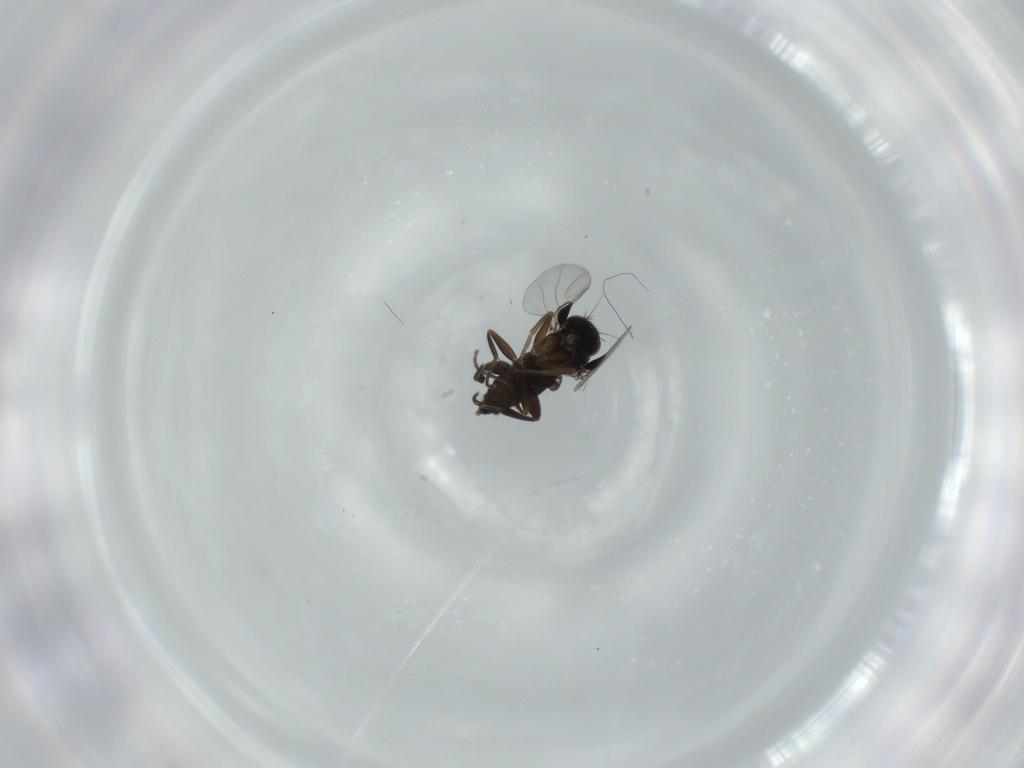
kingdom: Animalia
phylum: Arthropoda
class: Insecta
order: Diptera
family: Psychodidae
